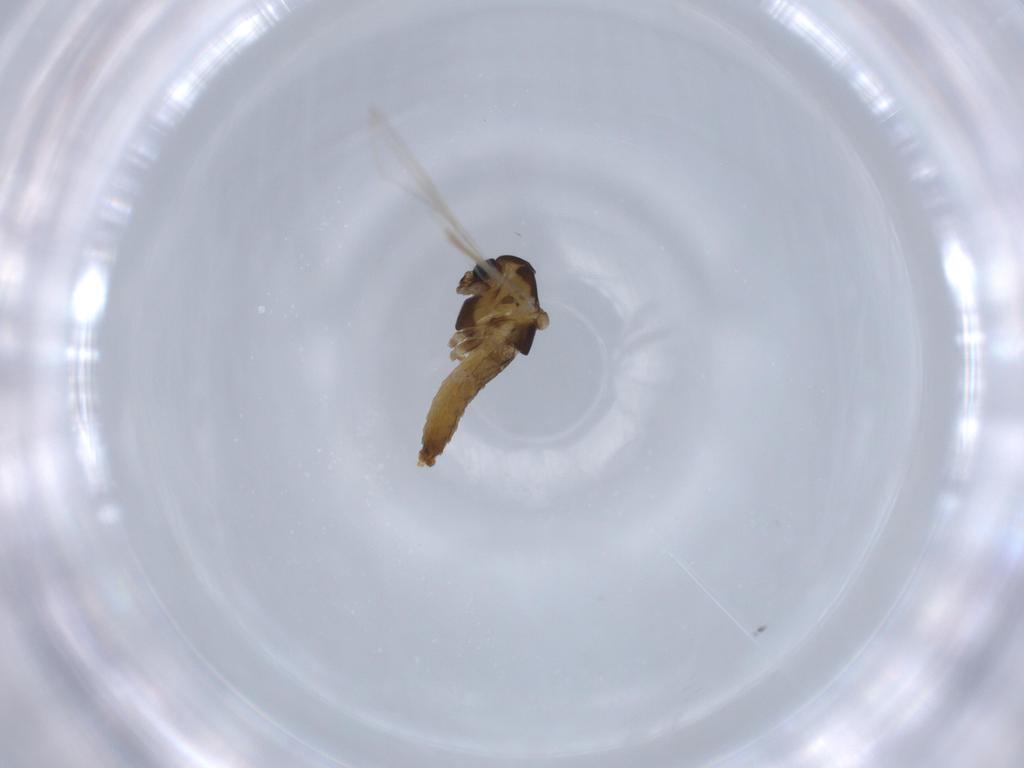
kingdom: Animalia
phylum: Arthropoda
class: Insecta
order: Diptera
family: Chironomidae
